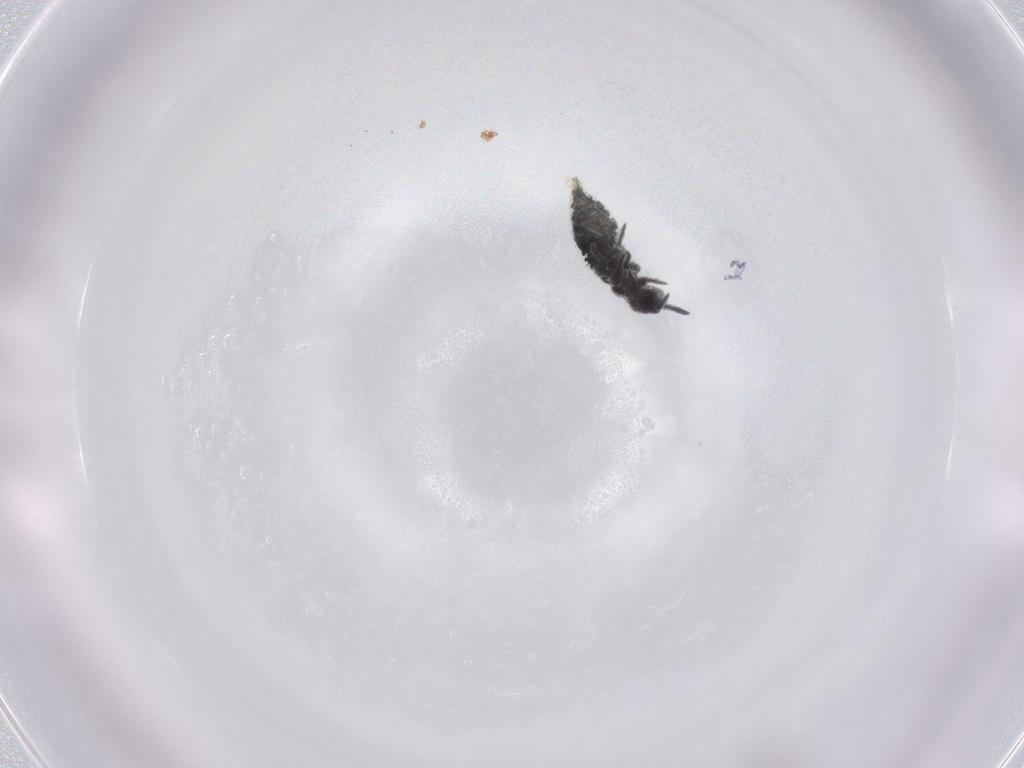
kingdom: Animalia
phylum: Arthropoda
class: Collembola
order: Poduromorpha
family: Hypogastruridae
